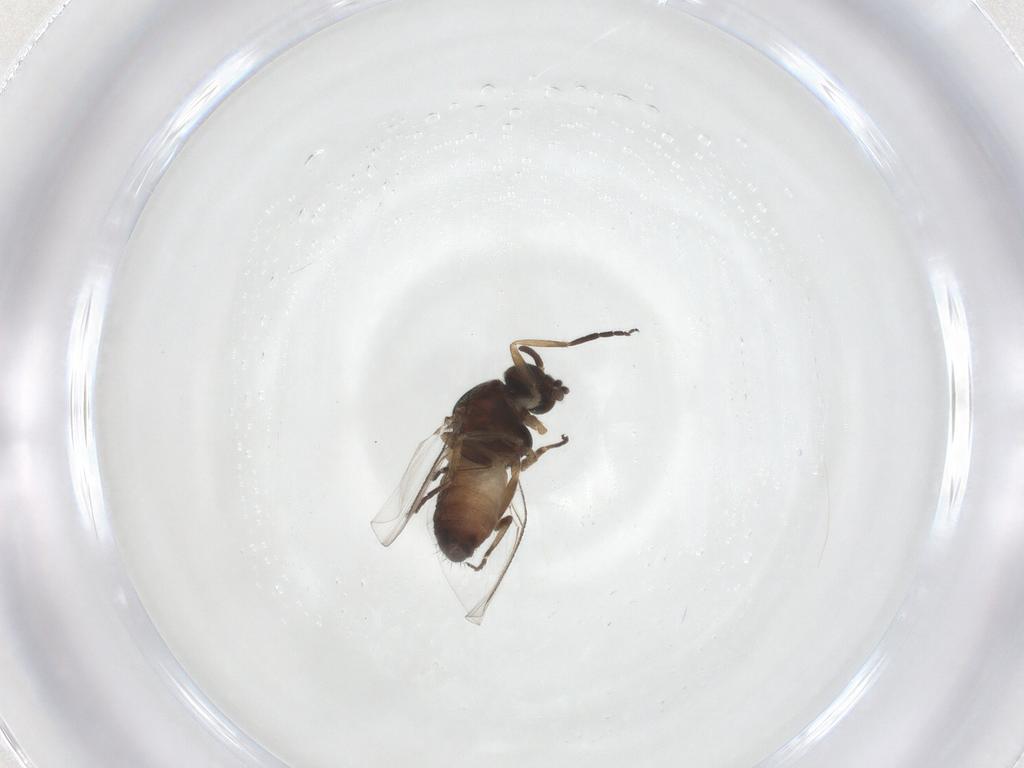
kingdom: Animalia
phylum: Arthropoda
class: Insecta
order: Diptera
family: Simuliidae
